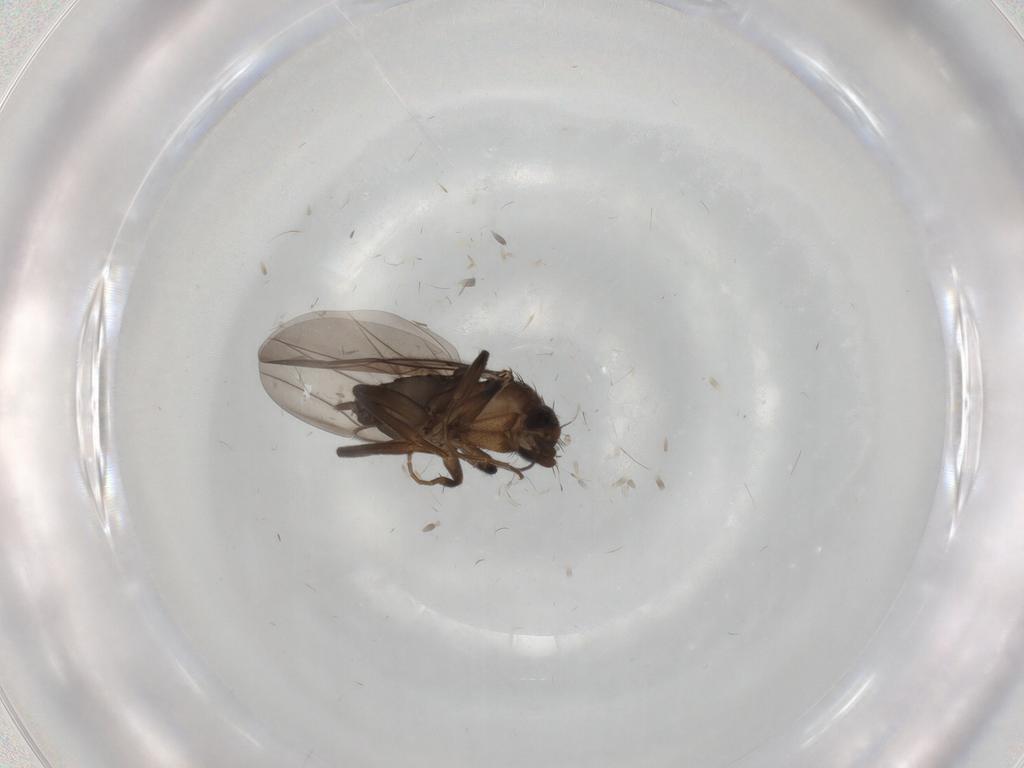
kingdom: Animalia
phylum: Arthropoda
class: Insecta
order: Diptera
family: Phoridae
